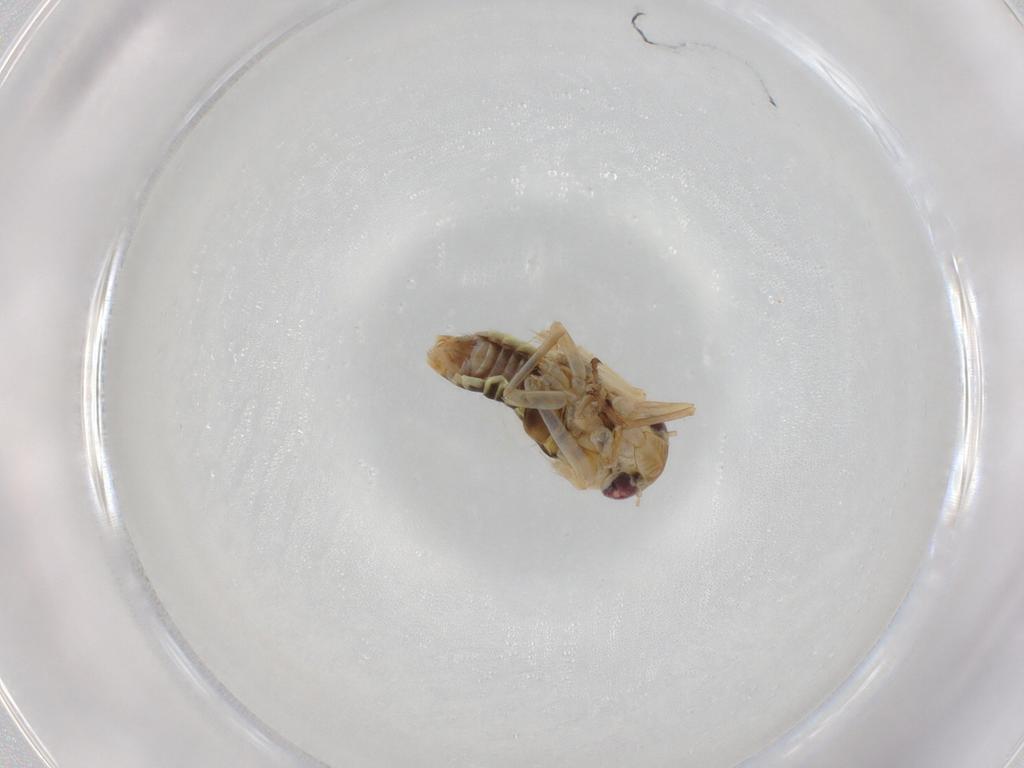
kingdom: Animalia
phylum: Arthropoda
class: Insecta
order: Hemiptera
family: Cicadellidae
